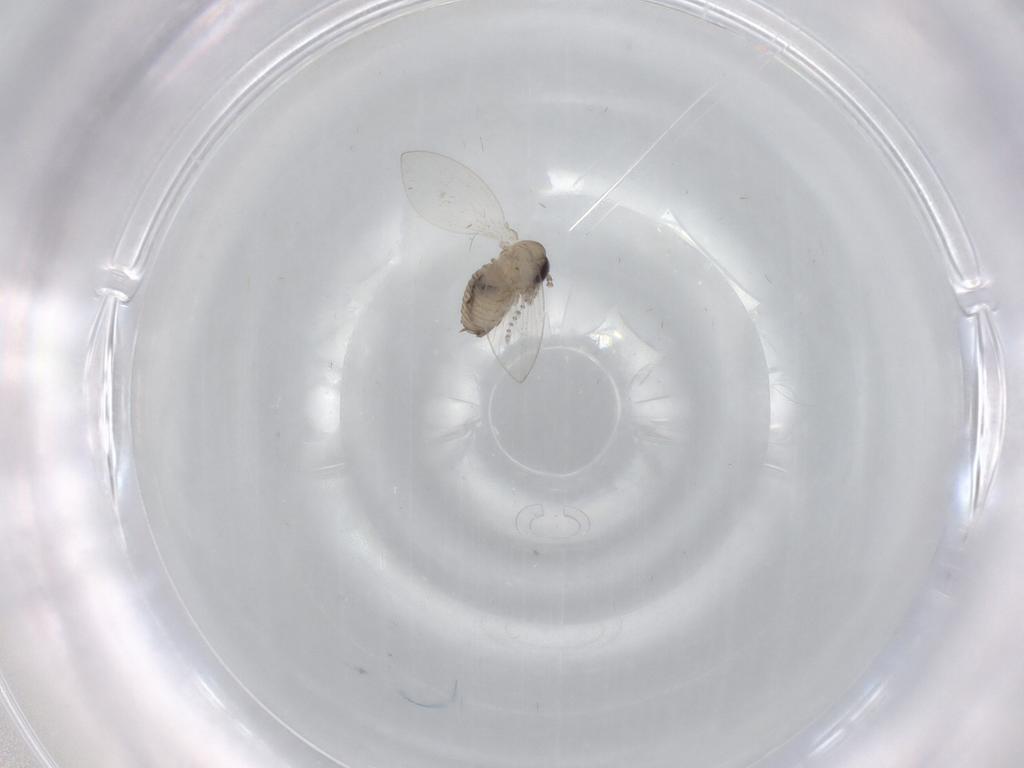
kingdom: Animalia
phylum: Arthropoda
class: Insecta
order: Diptera
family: Psychodidae
